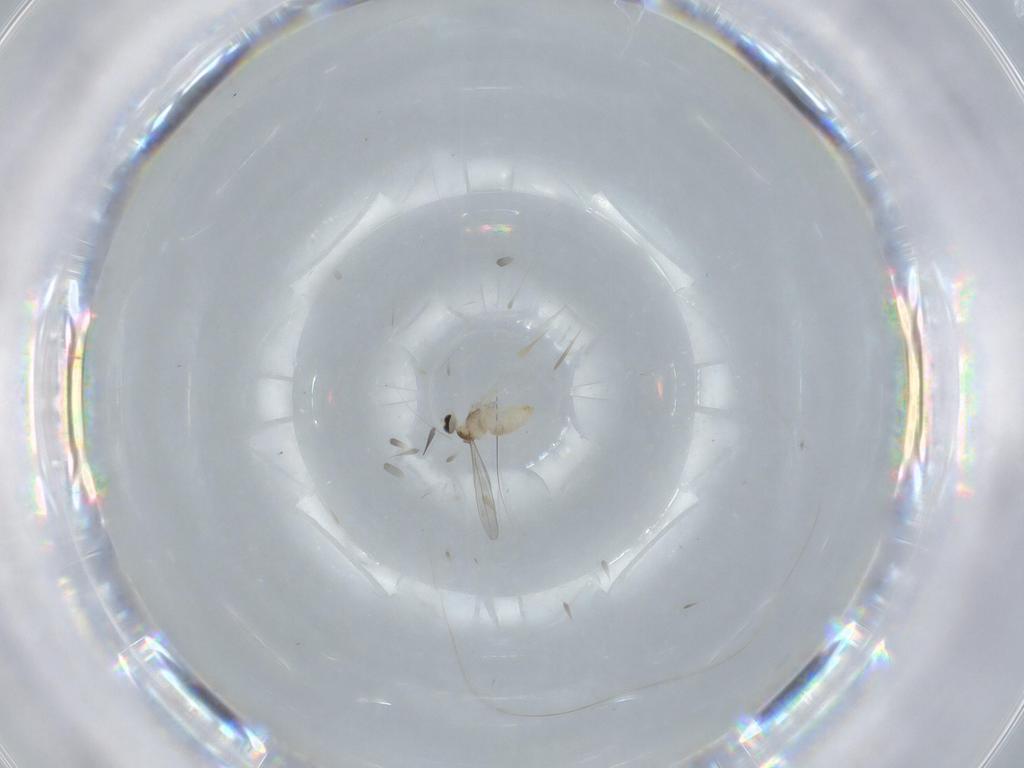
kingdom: Animalia
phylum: Arthropoda
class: Insecta
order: Diptera
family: Cecidomyiidae
